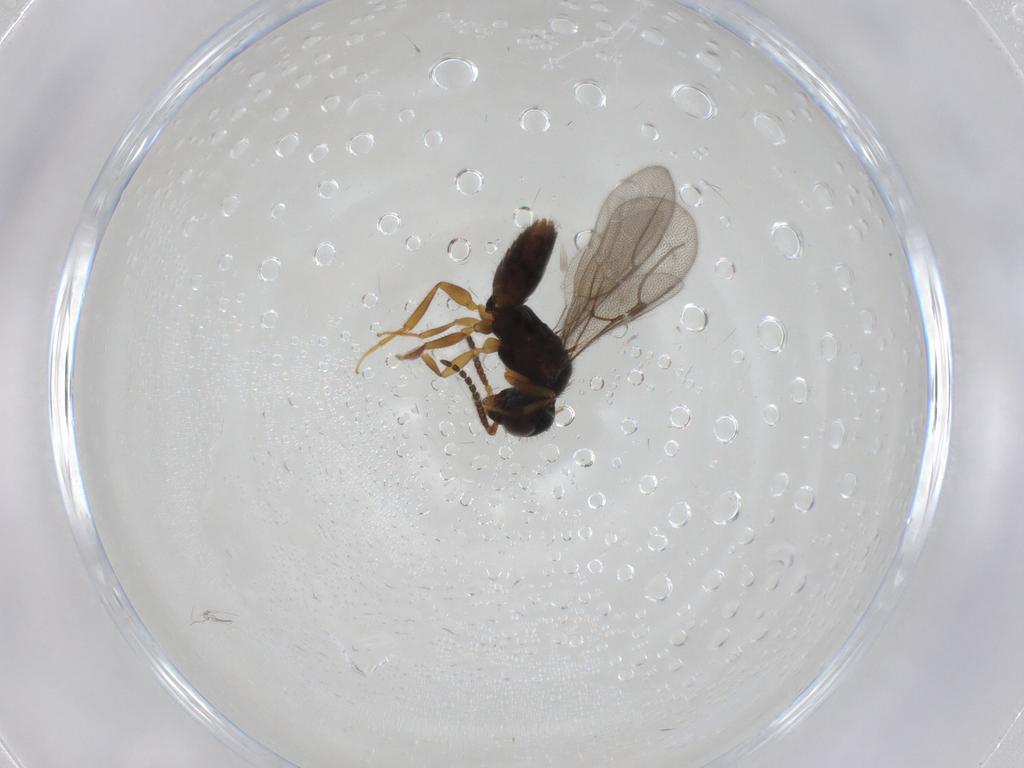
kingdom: Animalia
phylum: Arthropoda
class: Insecta
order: Hymenoptera
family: Bethylidae
